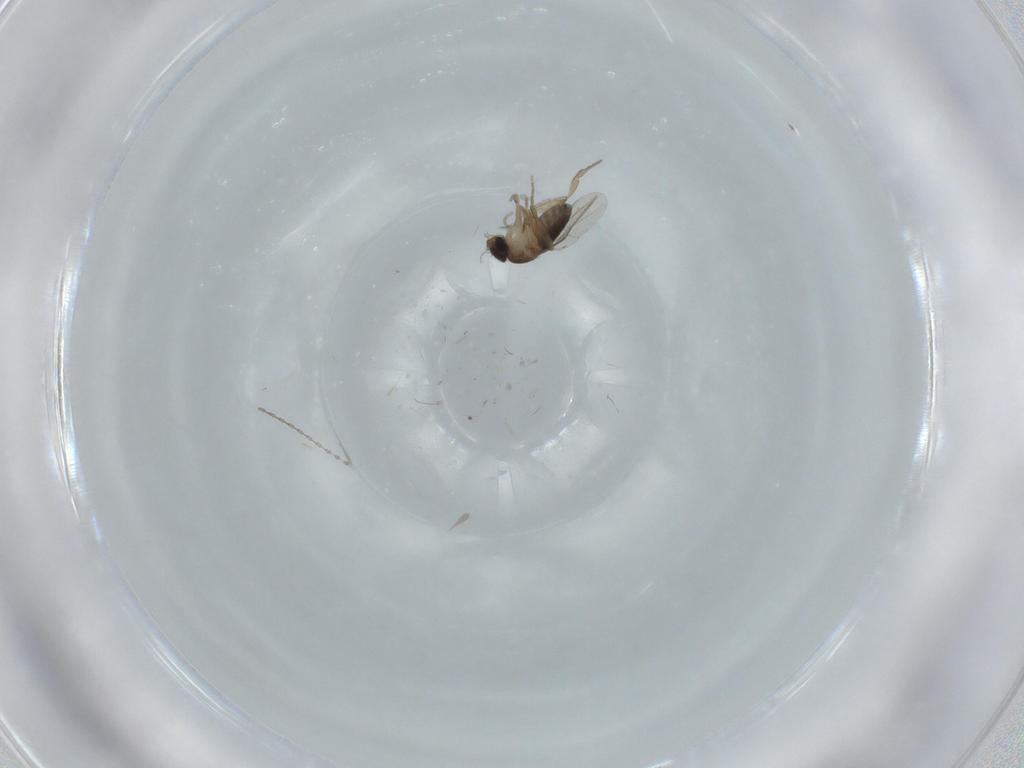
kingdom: Animalia
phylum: Arthropoda
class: Insecta
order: Diptera
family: Phoridae
